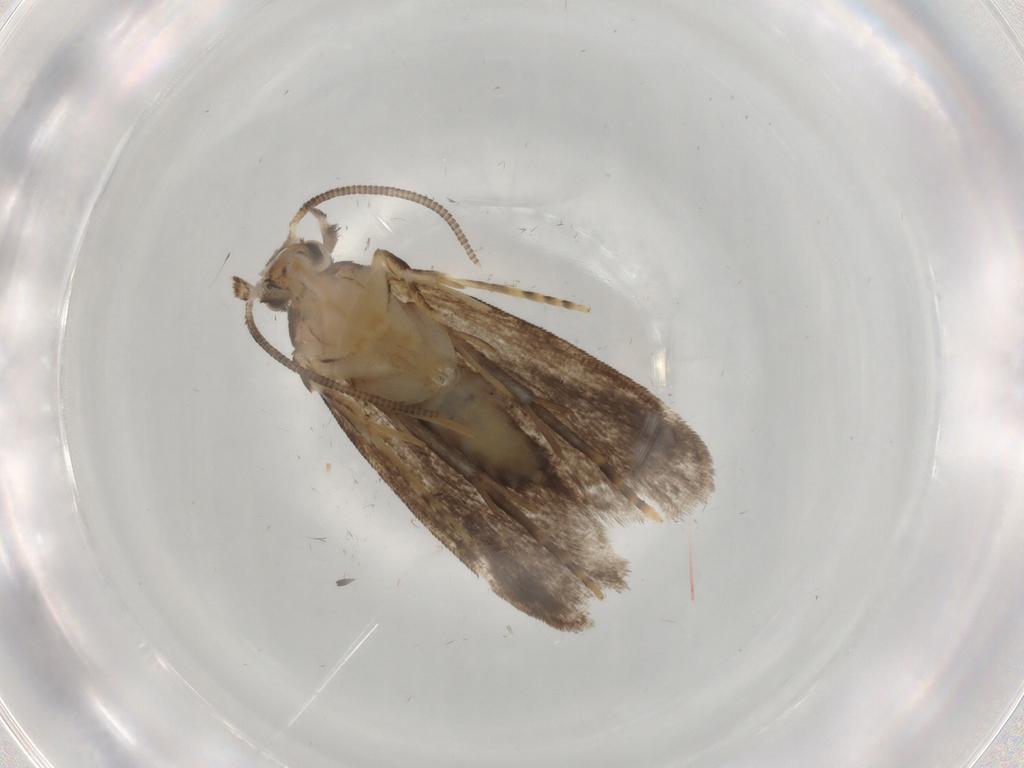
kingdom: Animalia
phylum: Arthropoda
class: Insecta
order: Lepidoptera
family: Dryadaulidae
